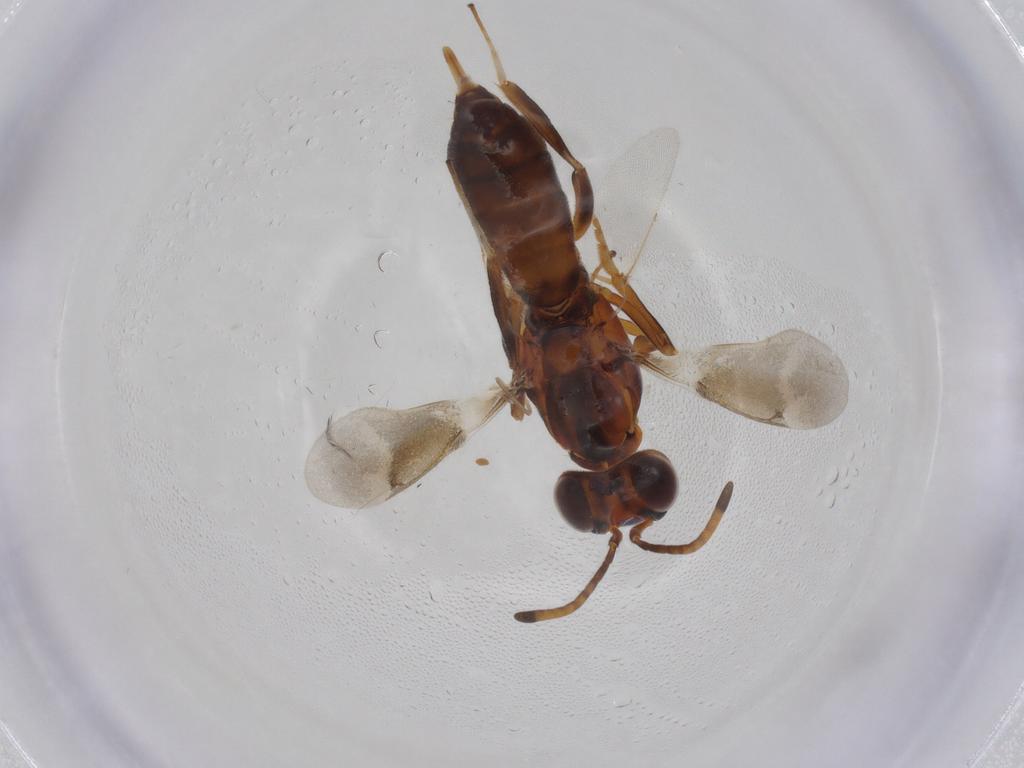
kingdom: Animalia
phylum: Arthropoda
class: Insecta
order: Hymenoptera
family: Eupelmidae
